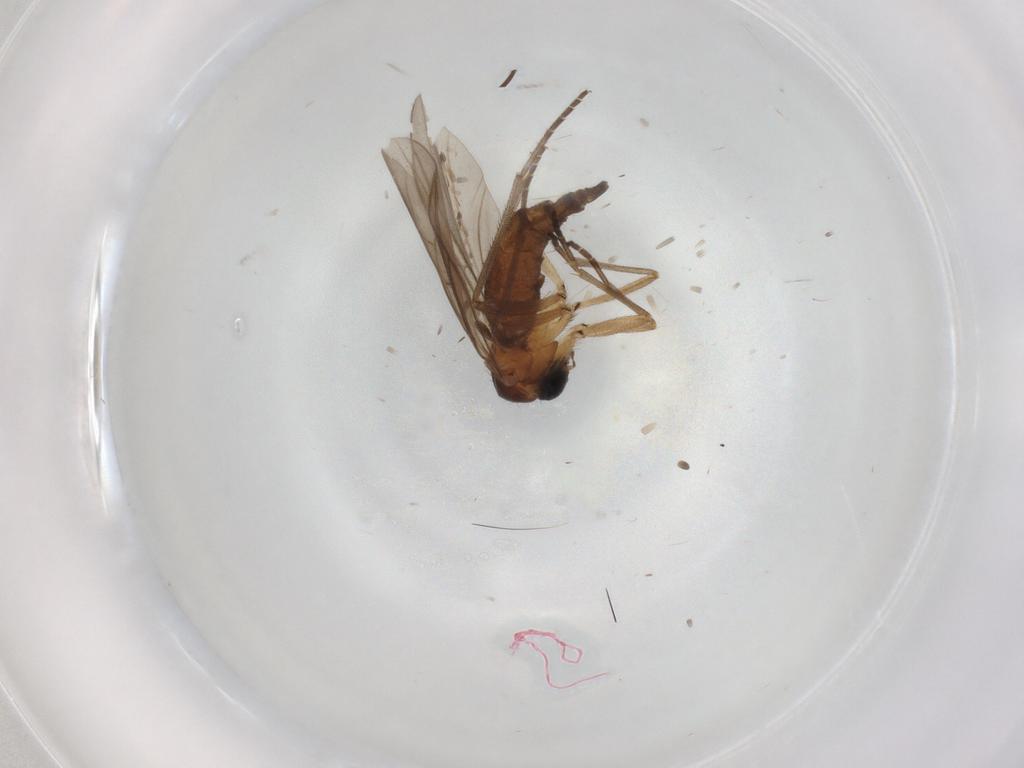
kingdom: Animalia
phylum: Arthropoda
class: Insecta
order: Diptera
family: Sciaridae
